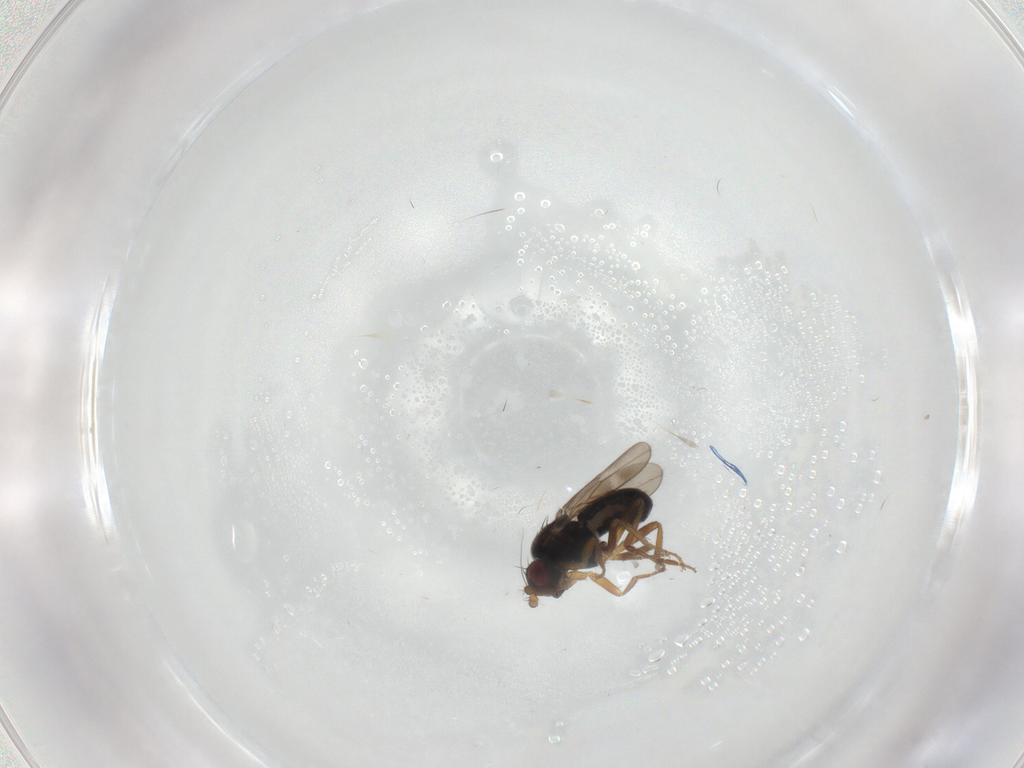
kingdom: Animalia
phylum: Arthropoda
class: Insecta
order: Diptera
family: Sphaeroceridae
